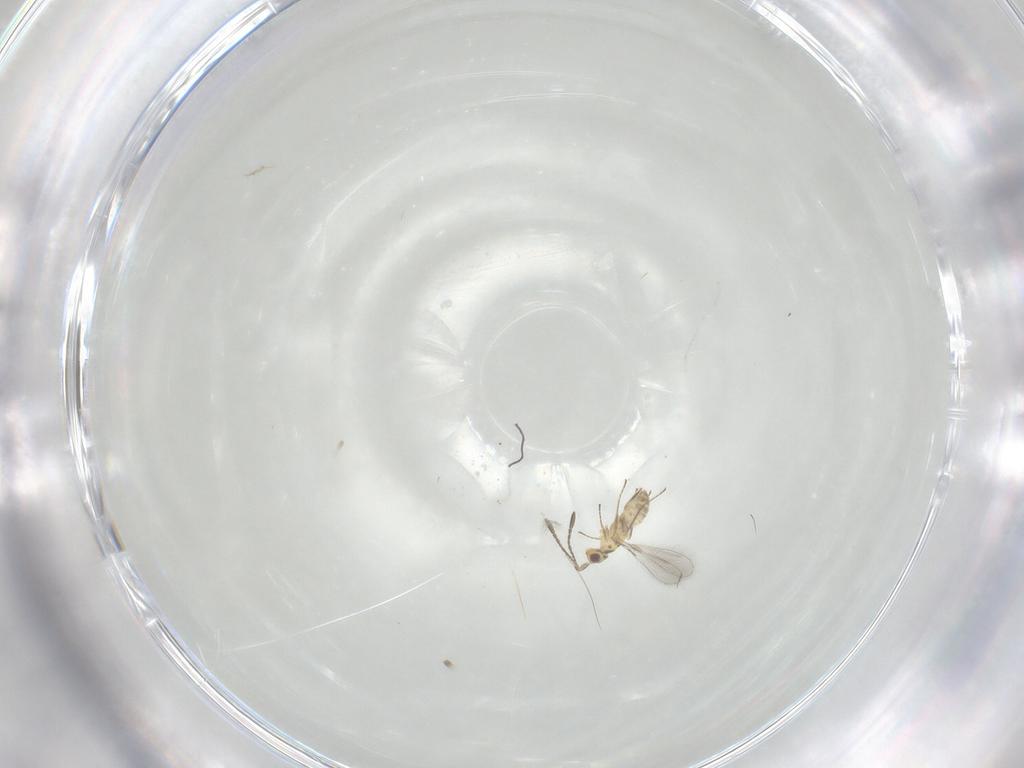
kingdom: Animalia
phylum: Arthropoda
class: Insecta
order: Hymenoptera
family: Mymaridae
